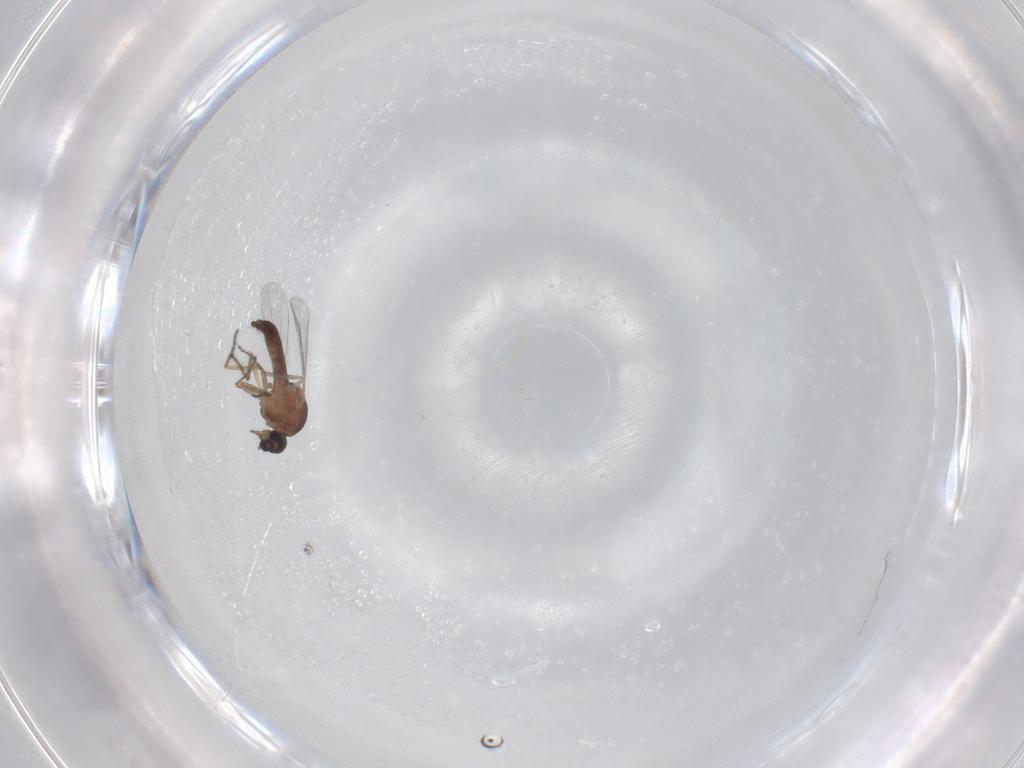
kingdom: Animalia
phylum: Arthropoda
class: Insecta
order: Diptera
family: Ceratopogonidae
